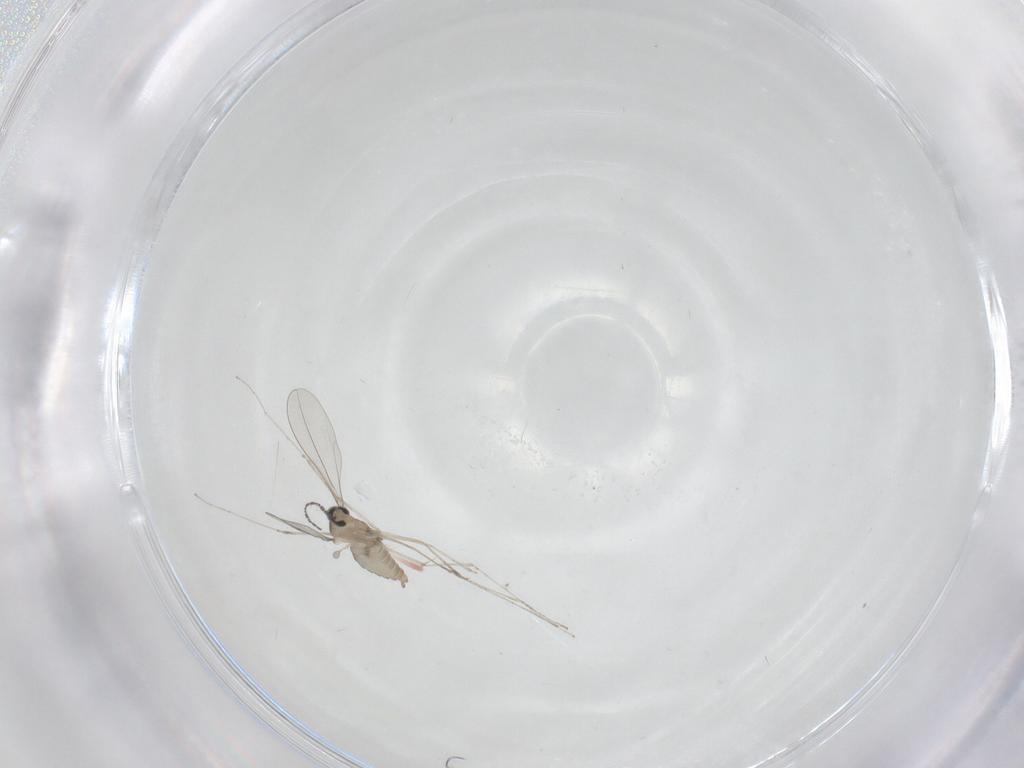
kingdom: Animalia
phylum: Arthropoda
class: Insecta
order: Diptera
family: Cecidomyiidae
